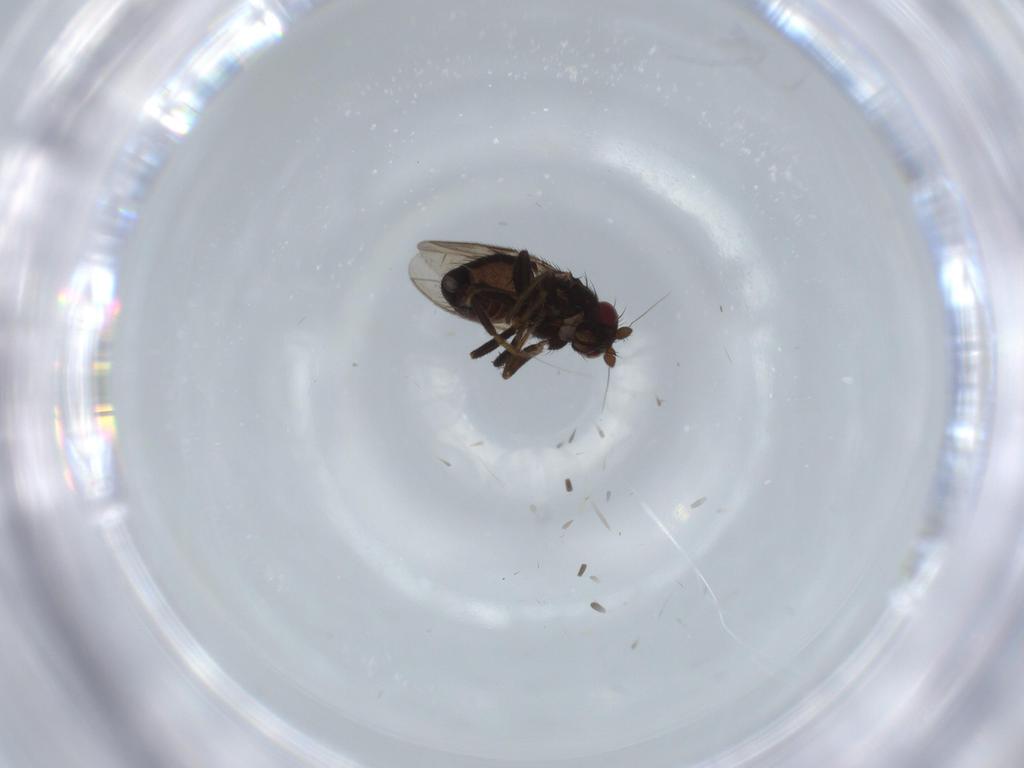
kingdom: Animalia
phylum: Arthropoda
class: Insecta
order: Diptera
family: Sphaeroceridae
